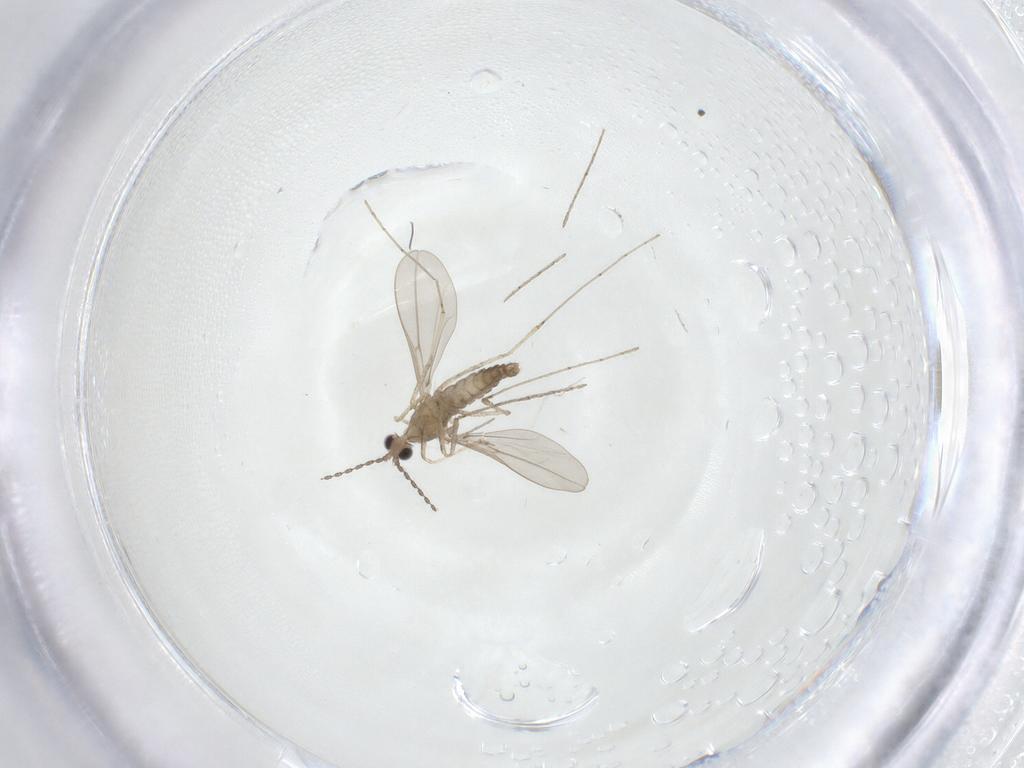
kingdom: Animalia
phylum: Arthropoda
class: Insecta
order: Diptera
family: Cecidomyiidae
